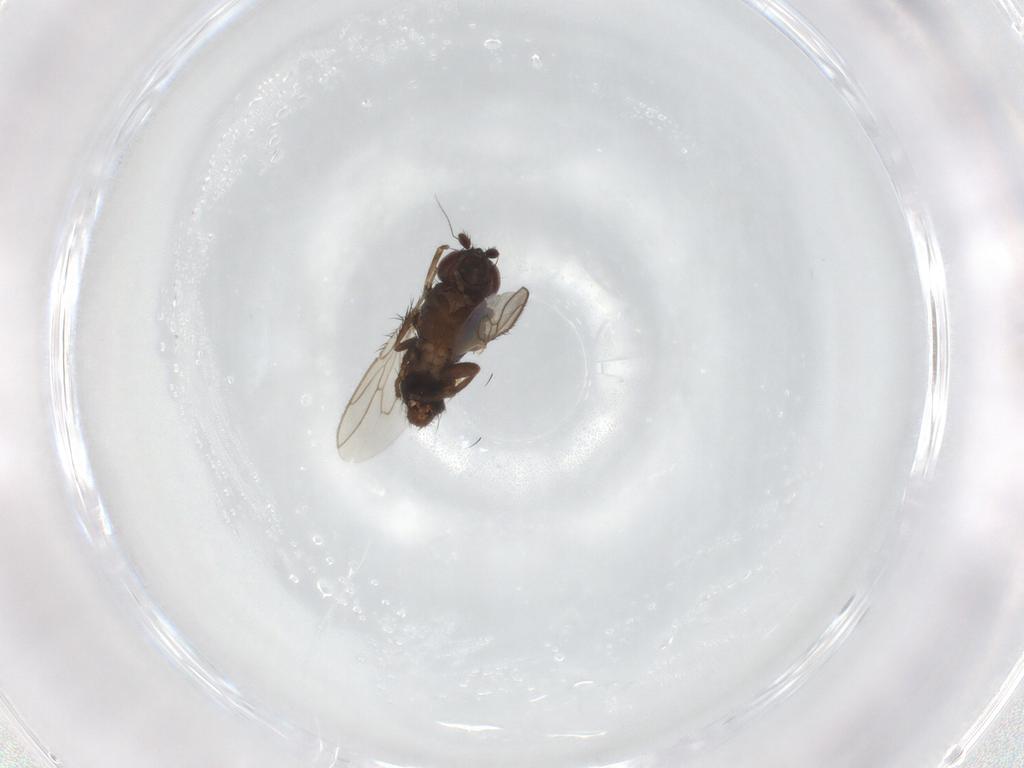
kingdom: Animalia
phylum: Arthropoda
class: Insecta
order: Diptera
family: Sphaeroceridae
